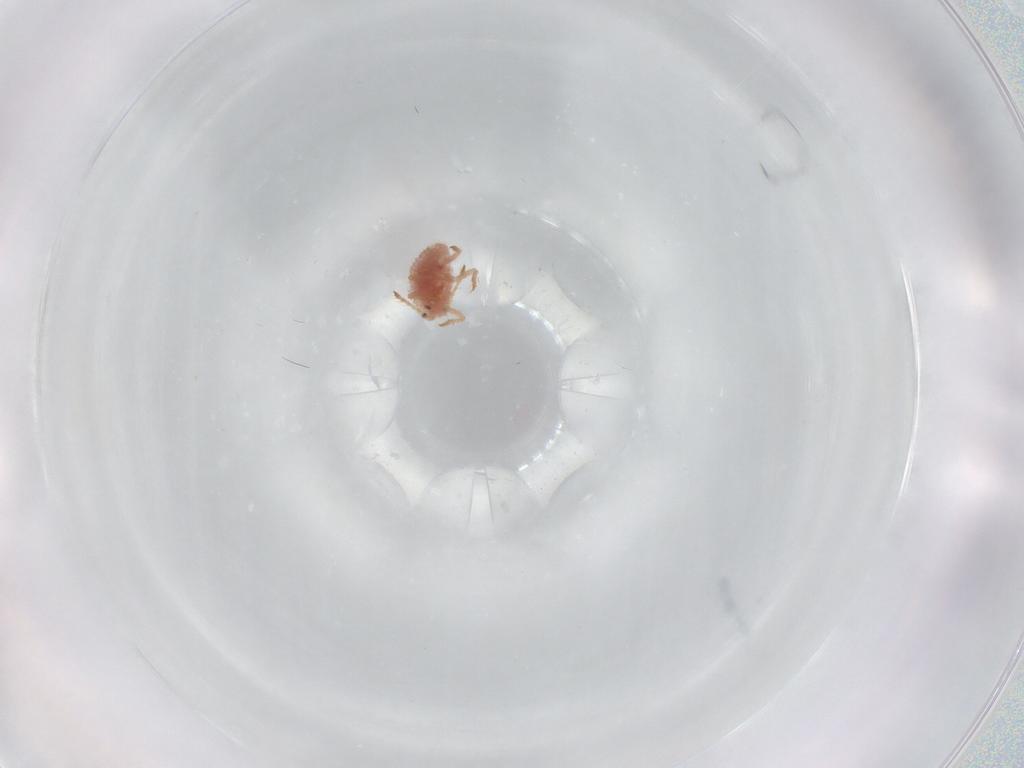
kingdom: Animalia
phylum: Arthropoda
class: Insecta
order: Hemiptera
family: Coccoidea_incertae_sedis
